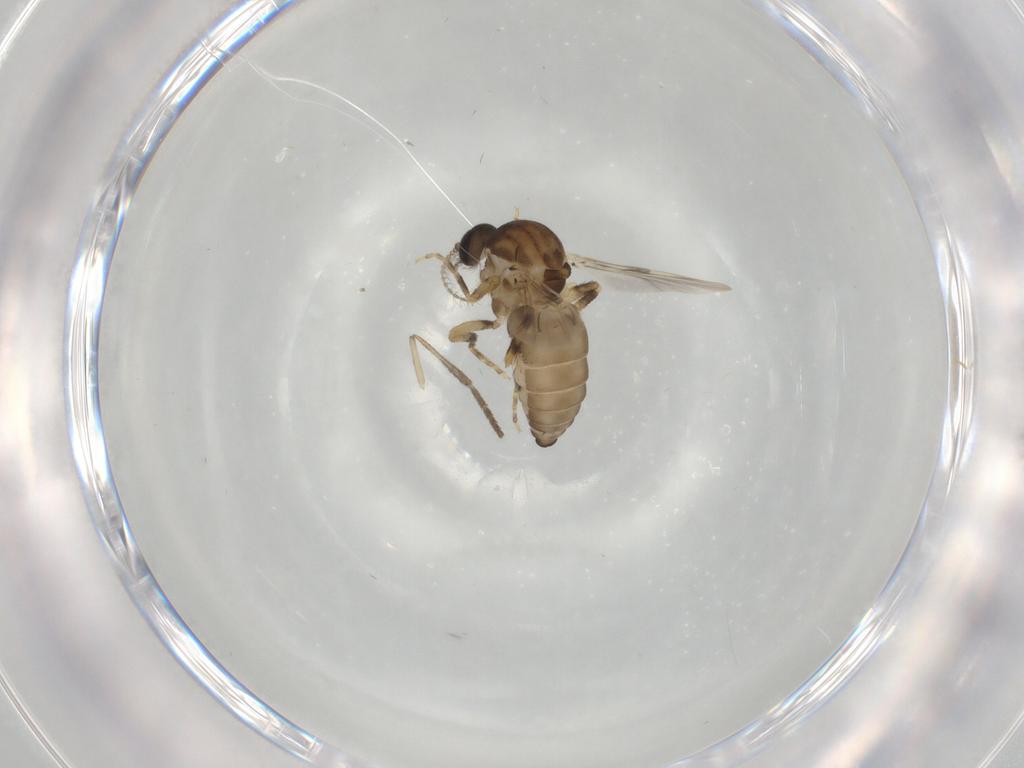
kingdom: Animalia
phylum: Arthropoda
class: Insecta
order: Diptera
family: Ceratopogonidae
